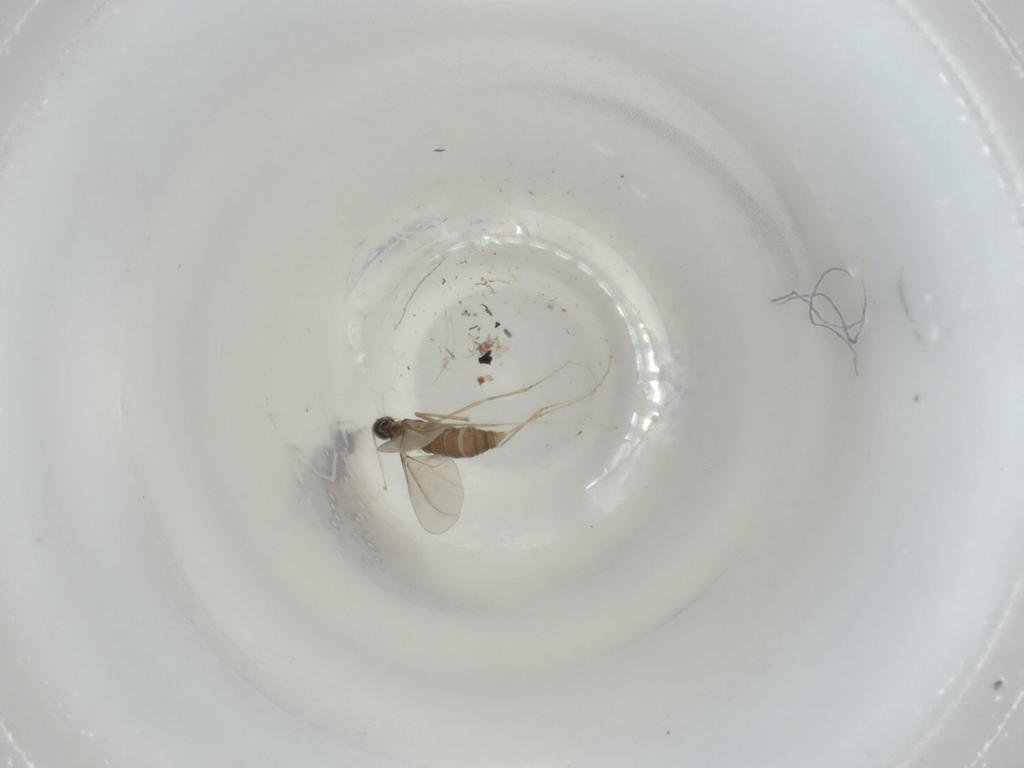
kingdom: Animalia
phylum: Arthropoda
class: Insecta
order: Diptera
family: Cecidomyiidae
